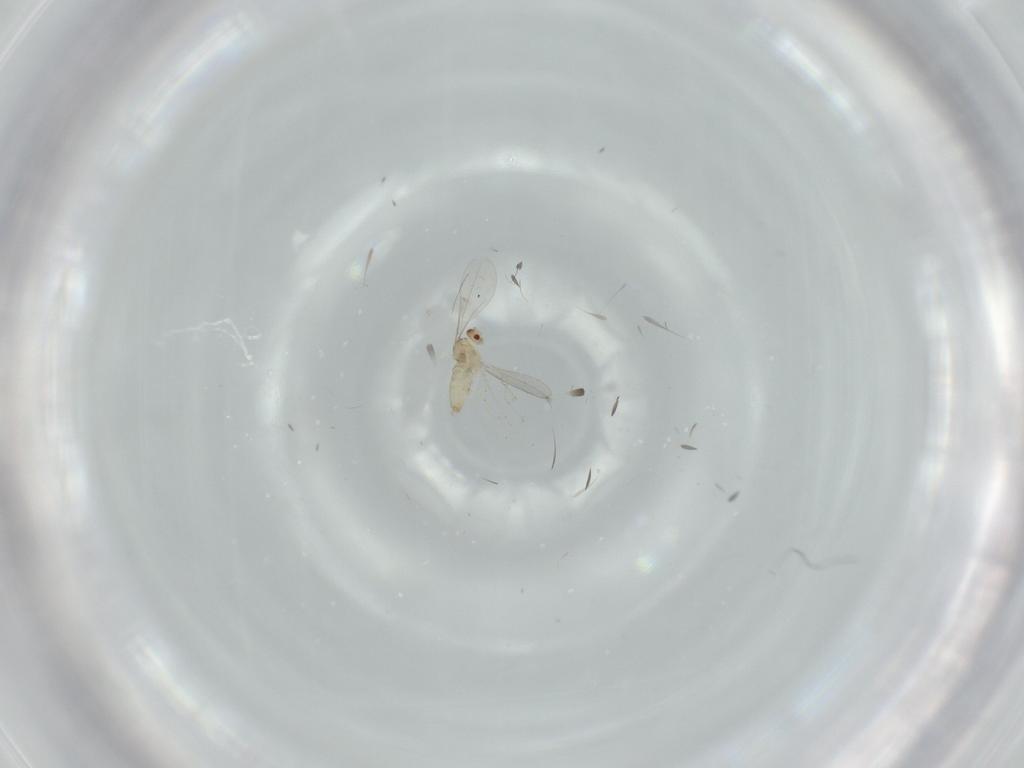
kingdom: Animalia
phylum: Arthropoda
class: Insecta
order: Diptera
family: Cecidomyiidae
